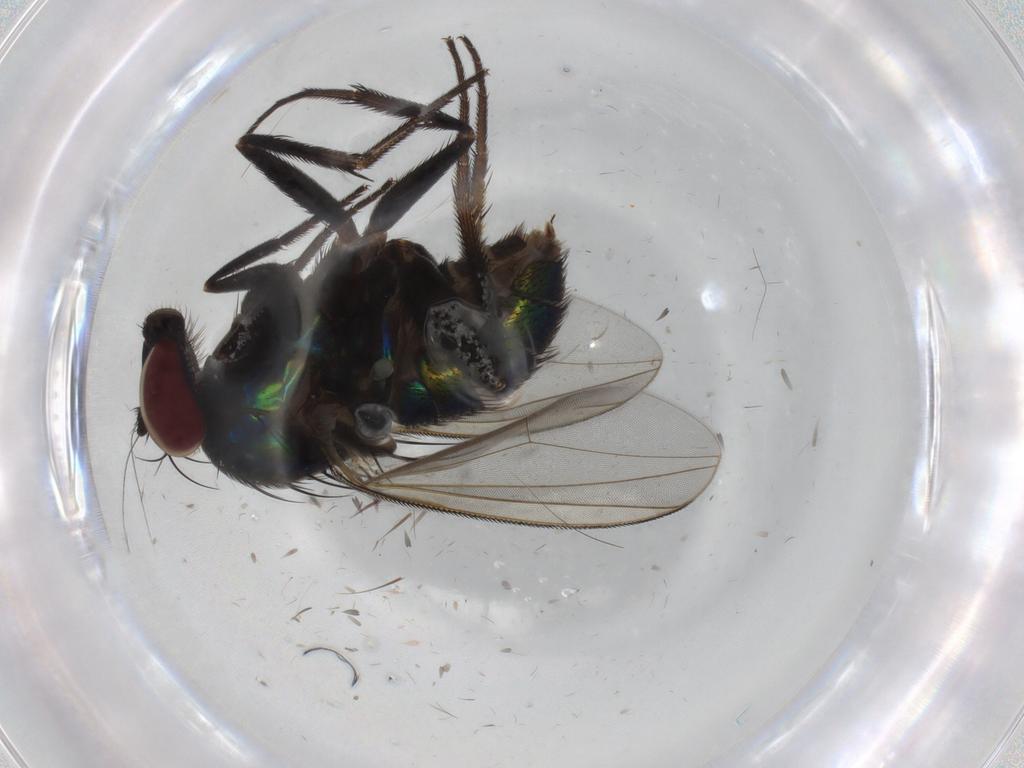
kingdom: Animalia
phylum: Arthropoda
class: Insecta
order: Diptera
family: Dolichopodidae
